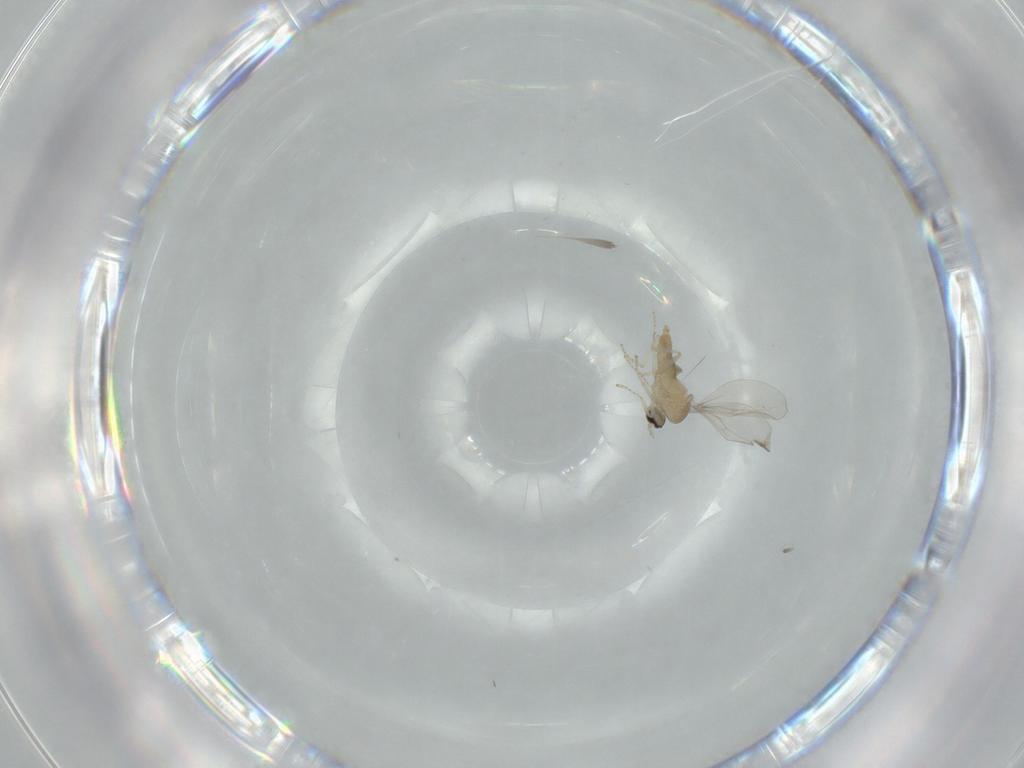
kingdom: Animalia
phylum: Arthropoda
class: Insecta
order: Diptera
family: Cecidomyiidae
